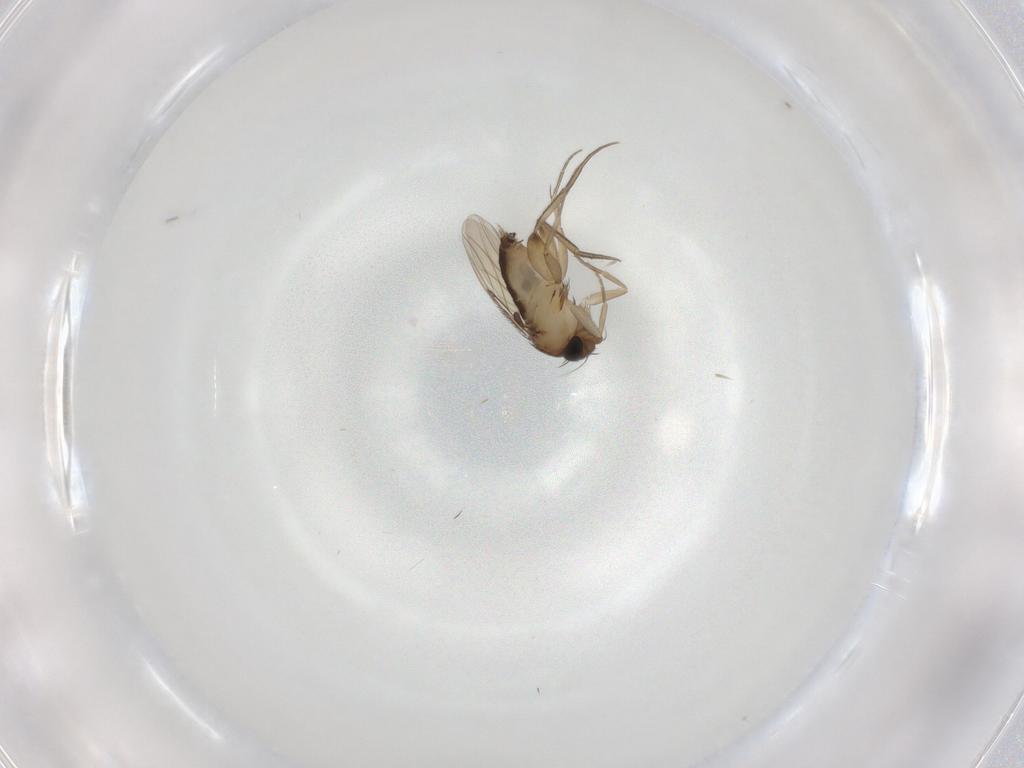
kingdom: Animalia
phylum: Arthropoda
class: Insecta
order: Diptera
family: Phoridae
